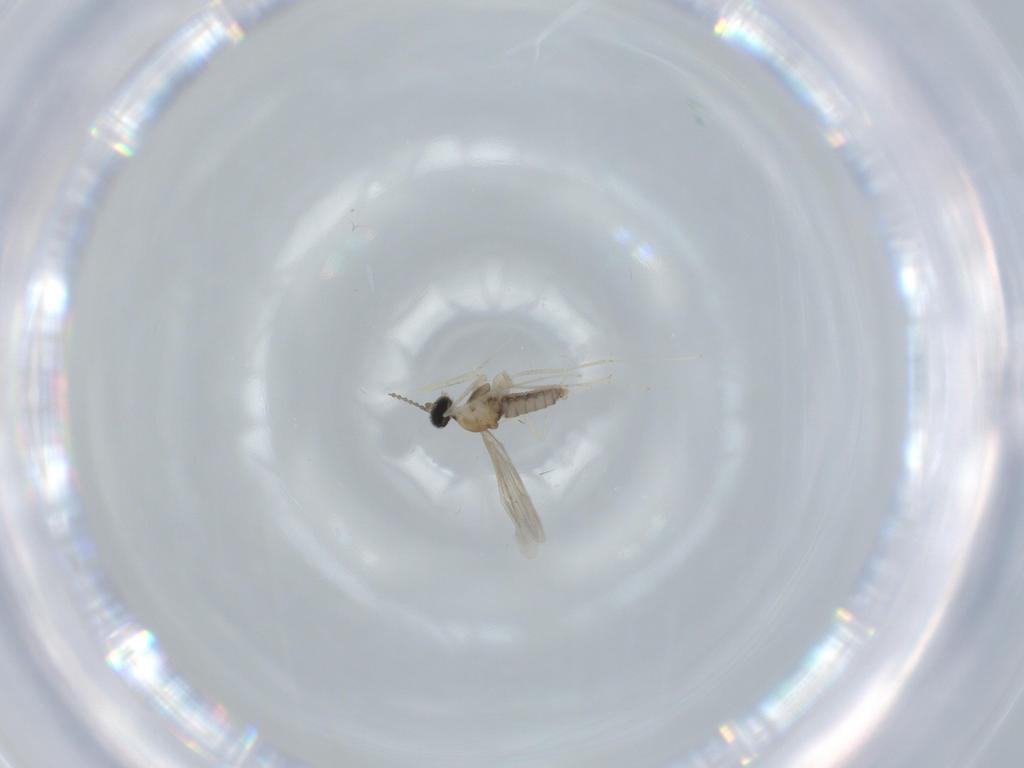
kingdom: Animalia
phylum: Arthropoda
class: Insecta
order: Diptera
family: Cecidomyiidae
